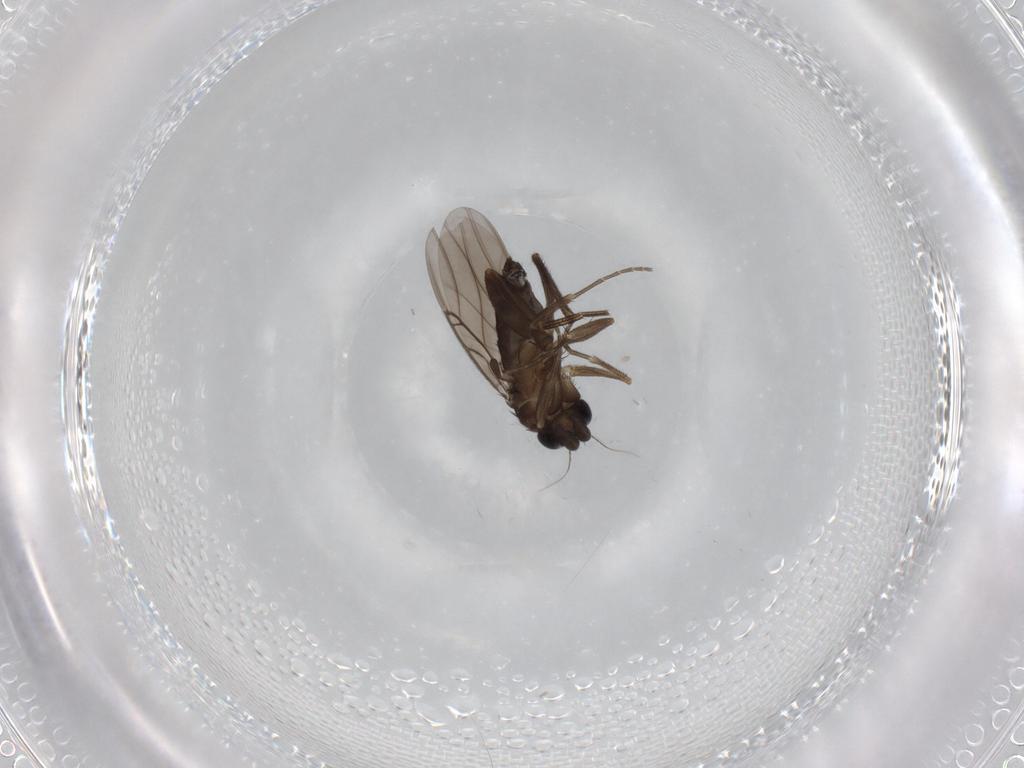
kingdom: Animalia
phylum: Arthropoda
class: Insecta
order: Diptera
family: Phoridae
